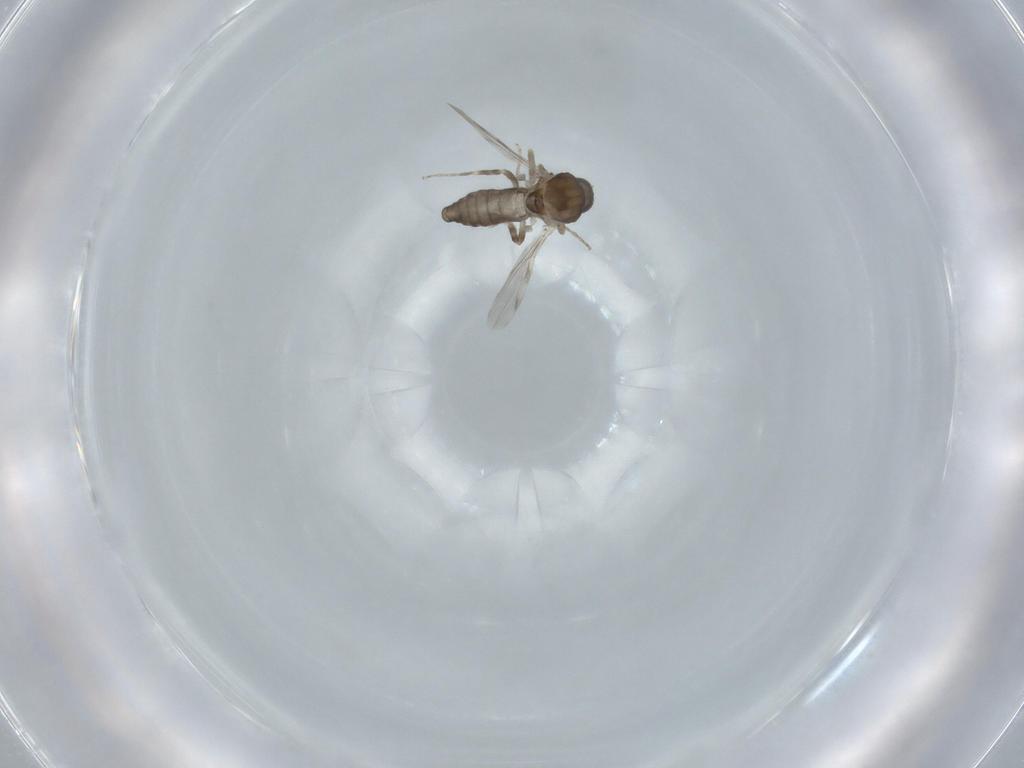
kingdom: Animalia
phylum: Arthropoda
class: Insecta
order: Diptera
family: Ceratopogonidae
